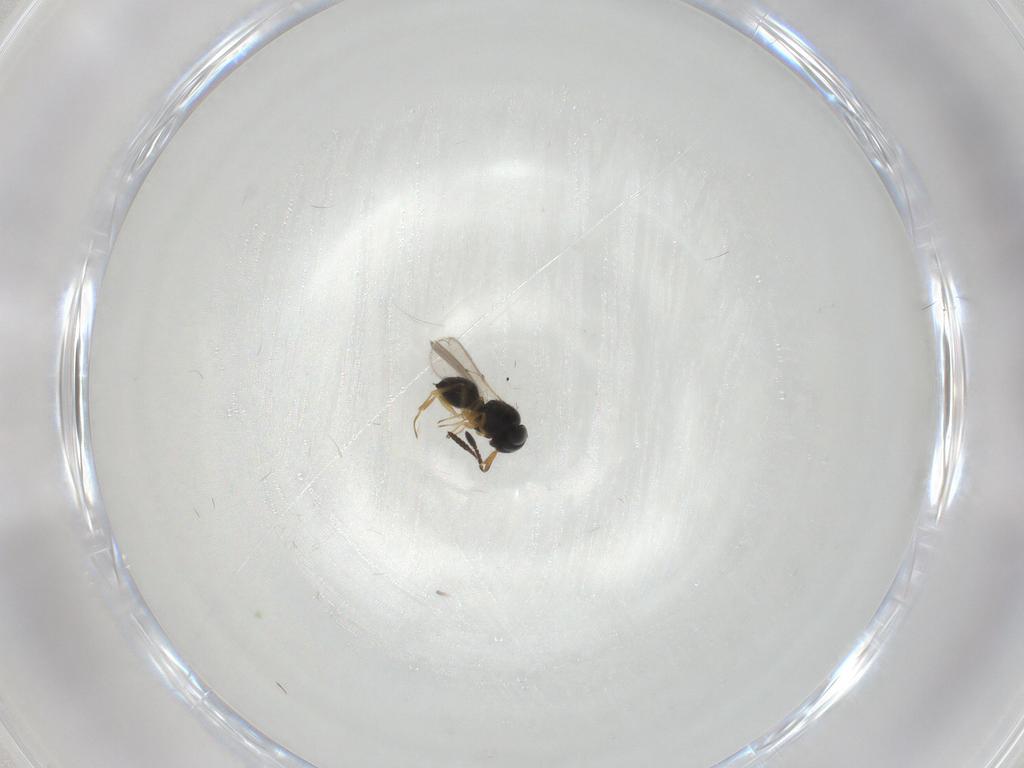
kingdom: Animalia
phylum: Arthropoda
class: Insecta
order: Hymenoptera
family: Scelionidae
